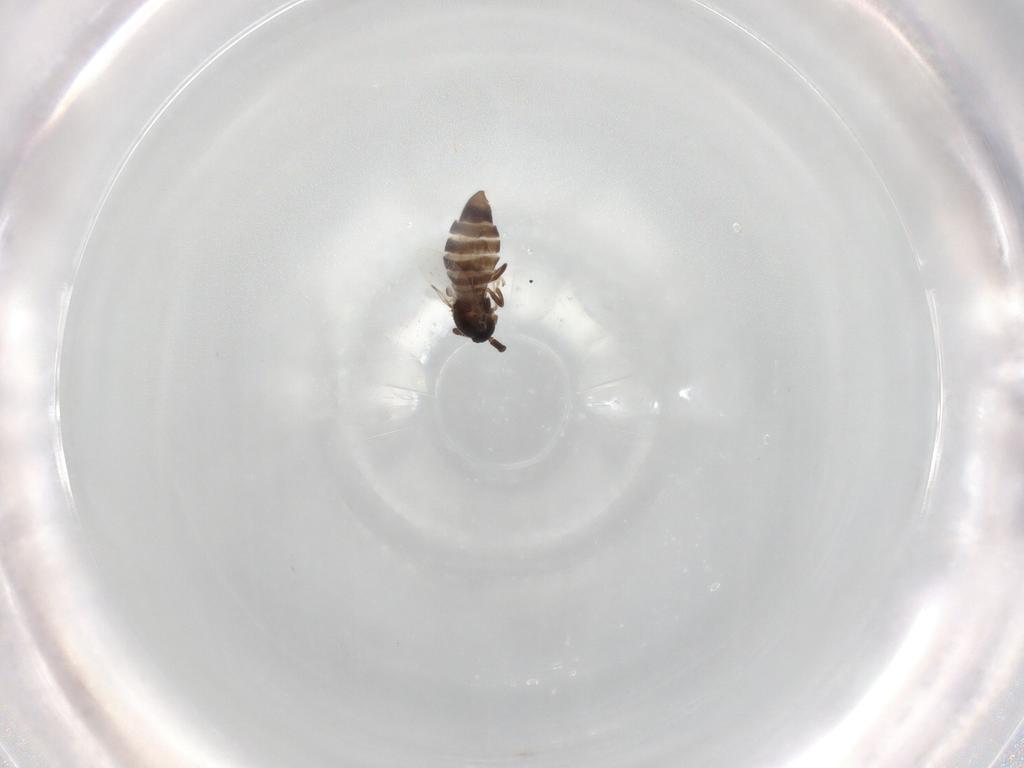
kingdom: Animalia
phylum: Arthropoda
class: Insecta
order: Diptera
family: Scatopsidae
